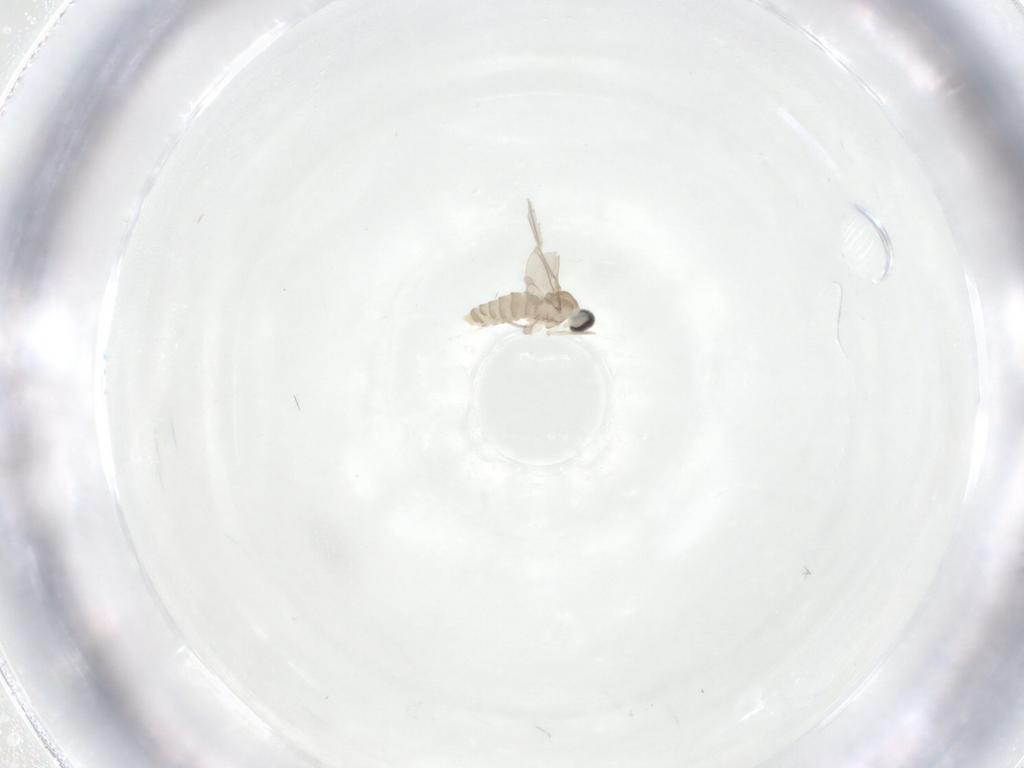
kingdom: Animalia
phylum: Arthropoda
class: Insecta
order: Diptera
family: Cecidomyiidae
